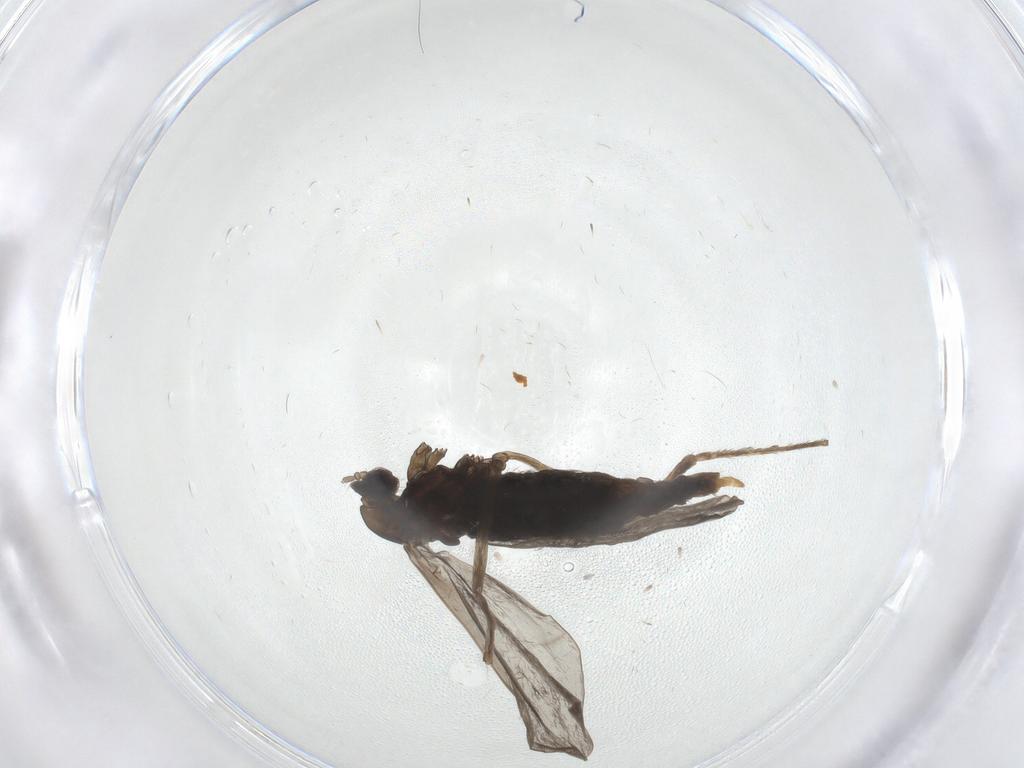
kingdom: Animalia
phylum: Arthropoda
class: Insecta
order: Diptera
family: Cecidomyiidae
